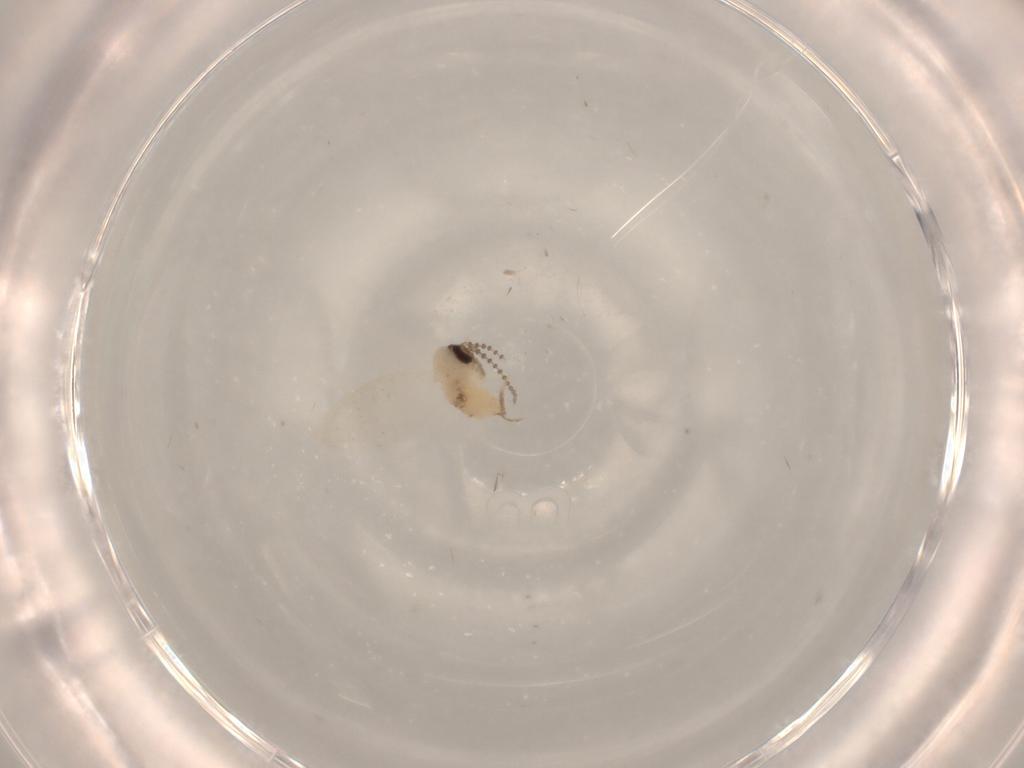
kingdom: Animalia
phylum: Arthropoda
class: Insecta
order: Diptera
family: Psychodidae
